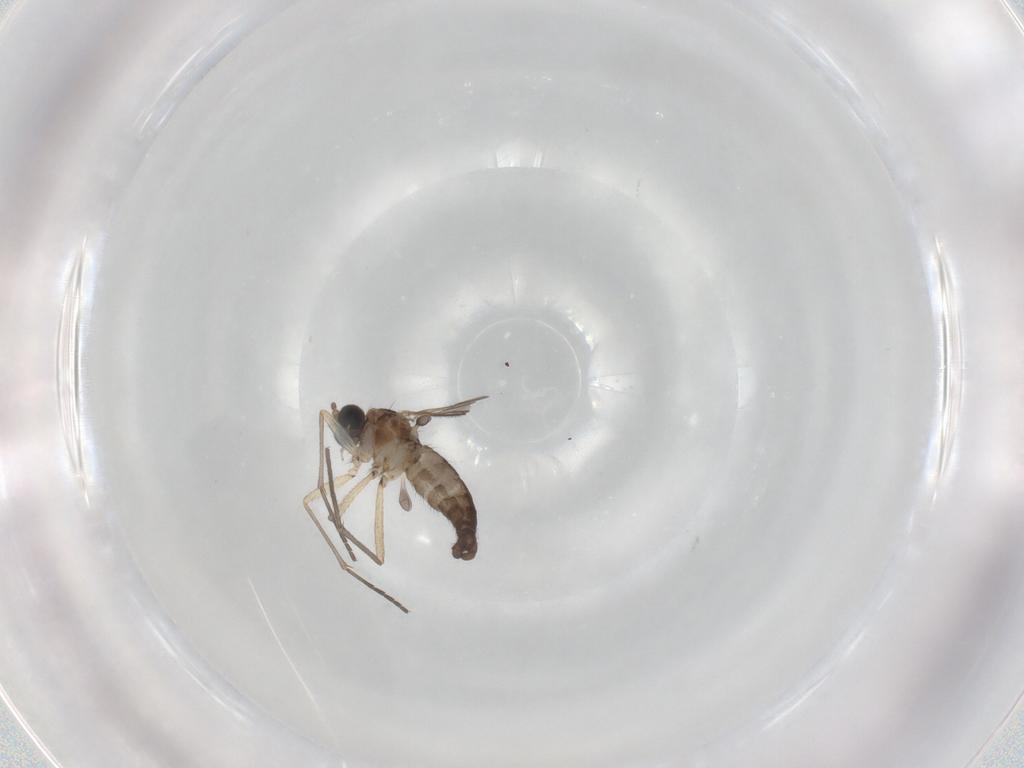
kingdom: Animalia
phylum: Arthropoda
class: Insecta
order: Diptera
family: Sciaridae
